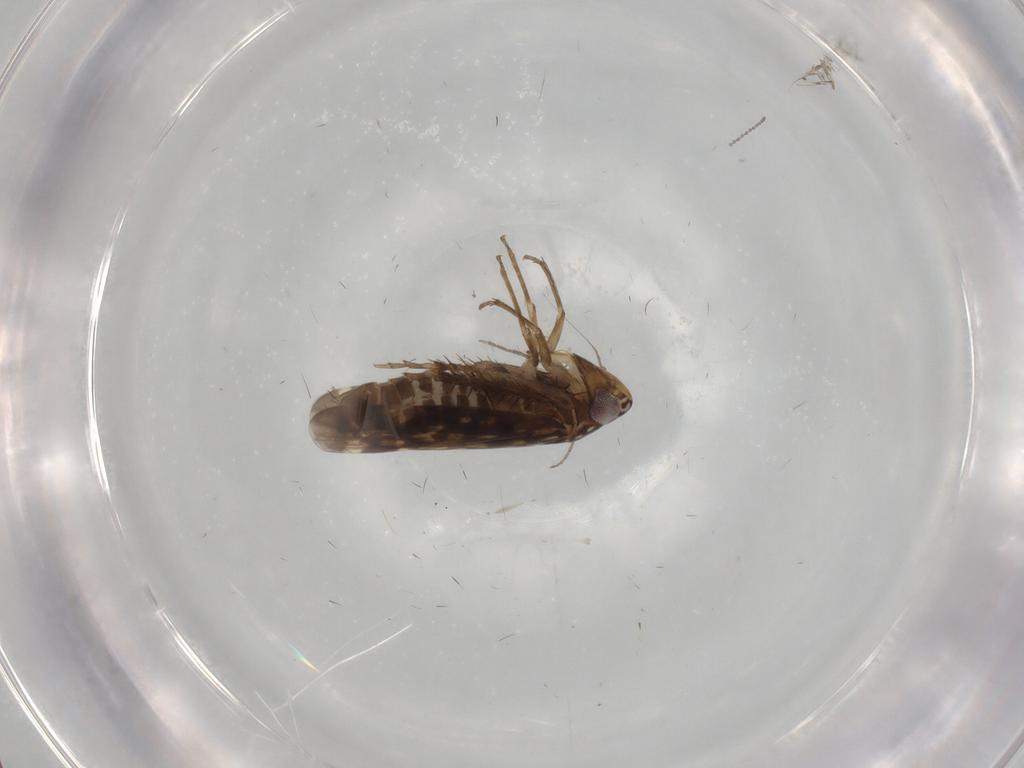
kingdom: Animalia
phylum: Arthropoda
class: Insecta
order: Hemiptera
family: Cicadellidae
